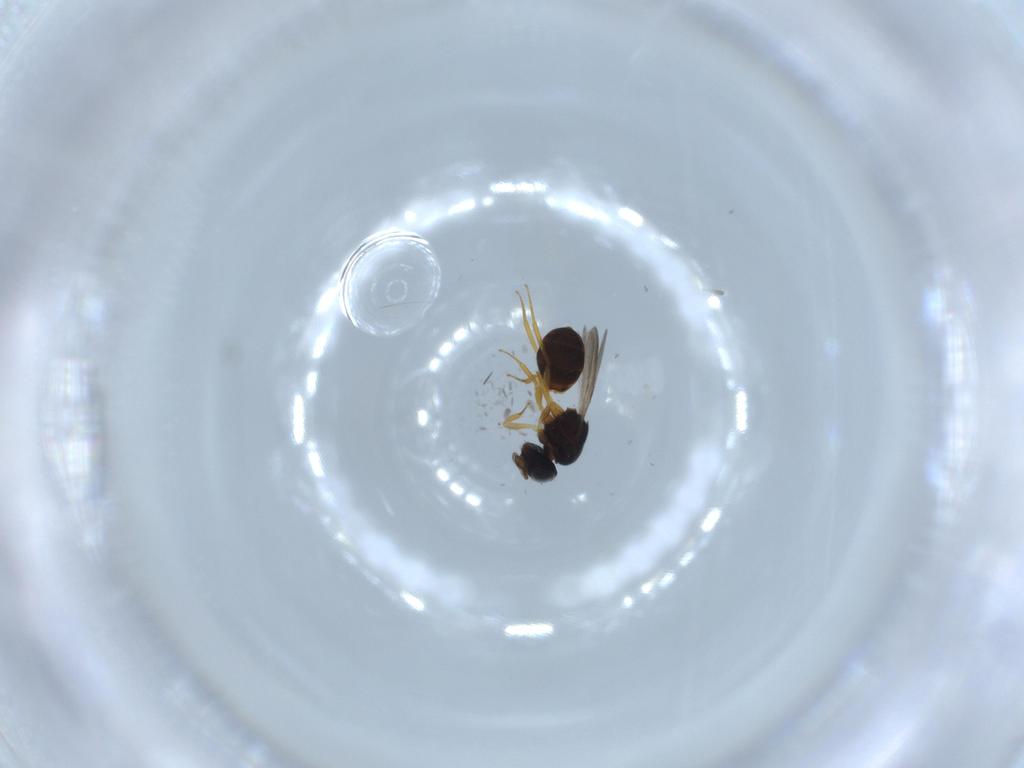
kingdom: Animalia
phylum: Arthropoda
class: Insecta
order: Hymenoptera
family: Scelionidae
